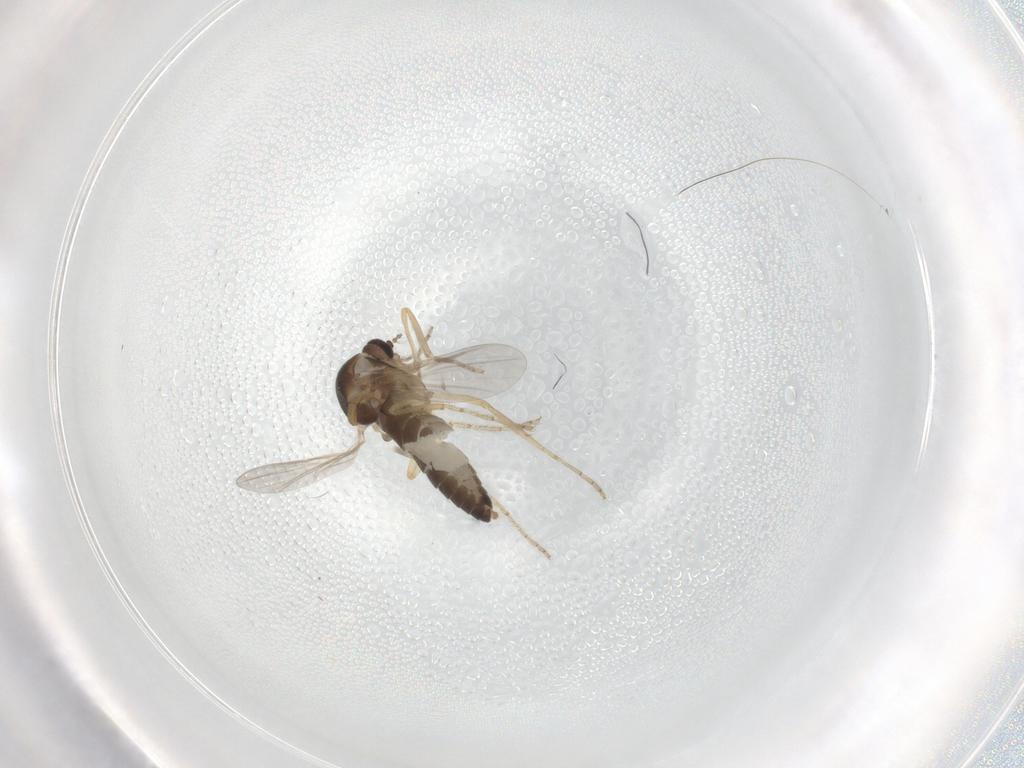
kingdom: Animalia
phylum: Arthropoda
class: Insecta
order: Diptera
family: Ceratopogonidae
